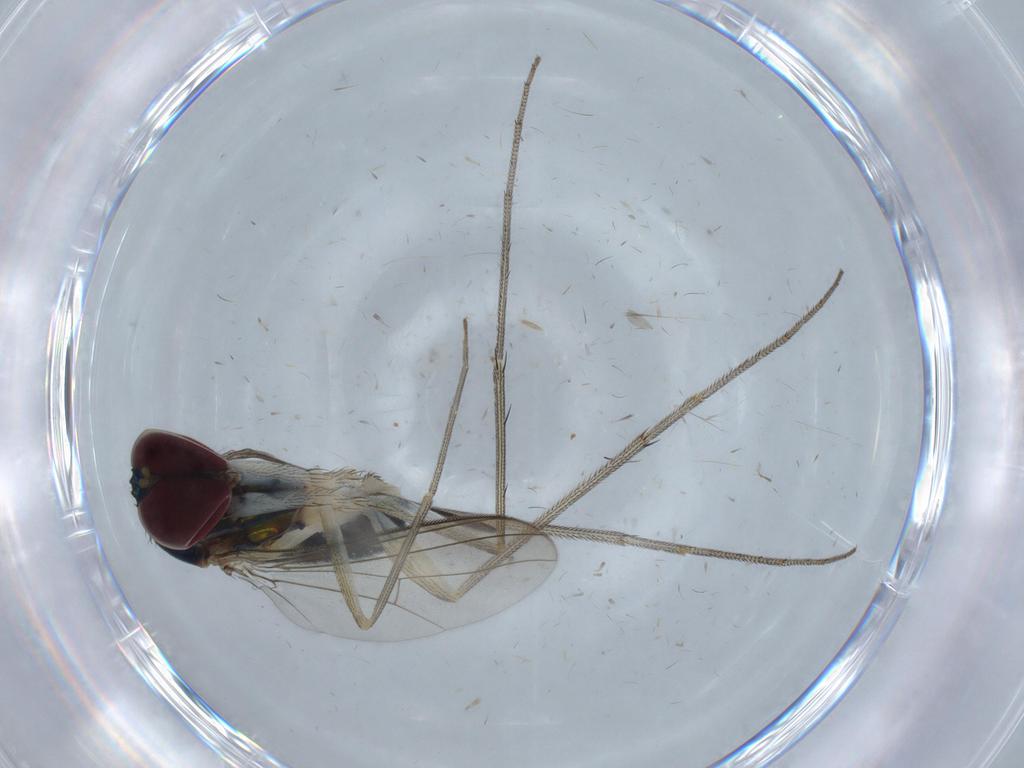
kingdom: Animalia
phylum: Arthropoda
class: Insecta
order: Diptera
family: Dolichopodidae
